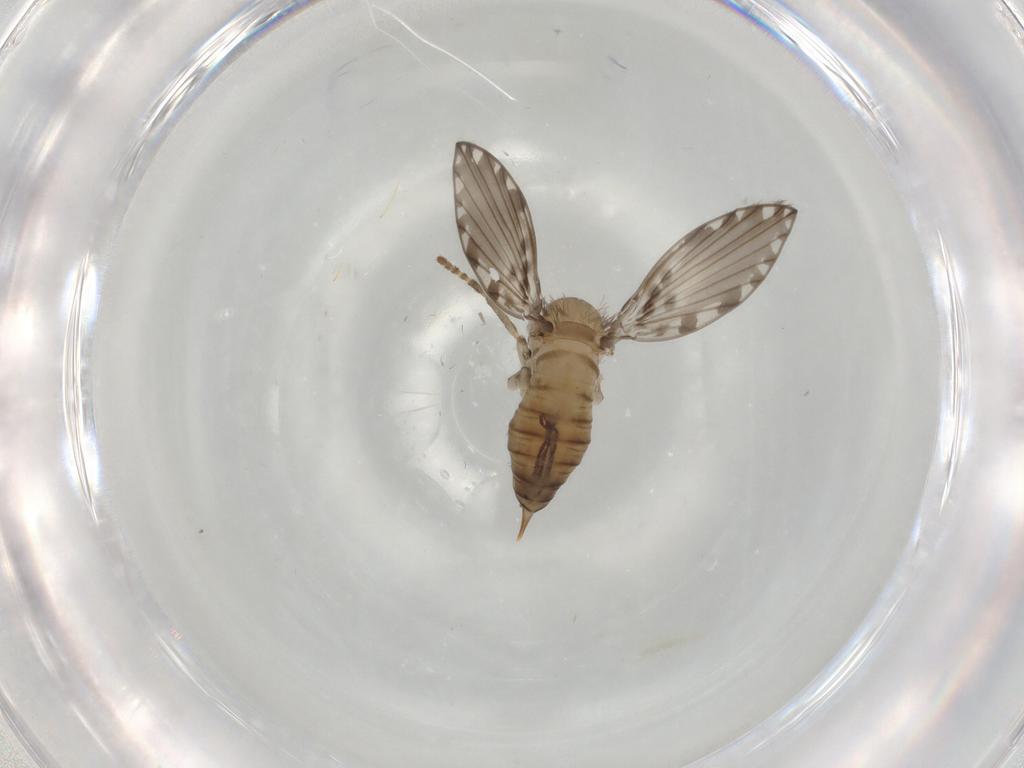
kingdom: Animalia
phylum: Arthropoda
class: Insecta
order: Diptera
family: Psychodidae
